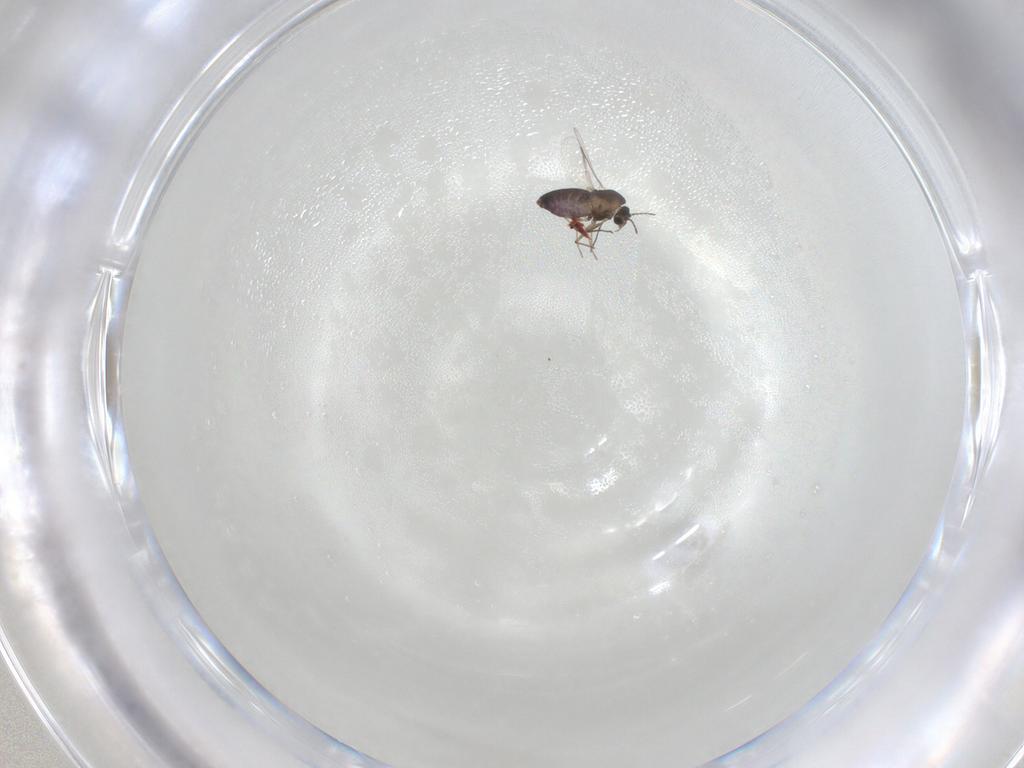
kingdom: Animalia
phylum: Arthropoda
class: Insecta
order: Diptera
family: Chironomidae
